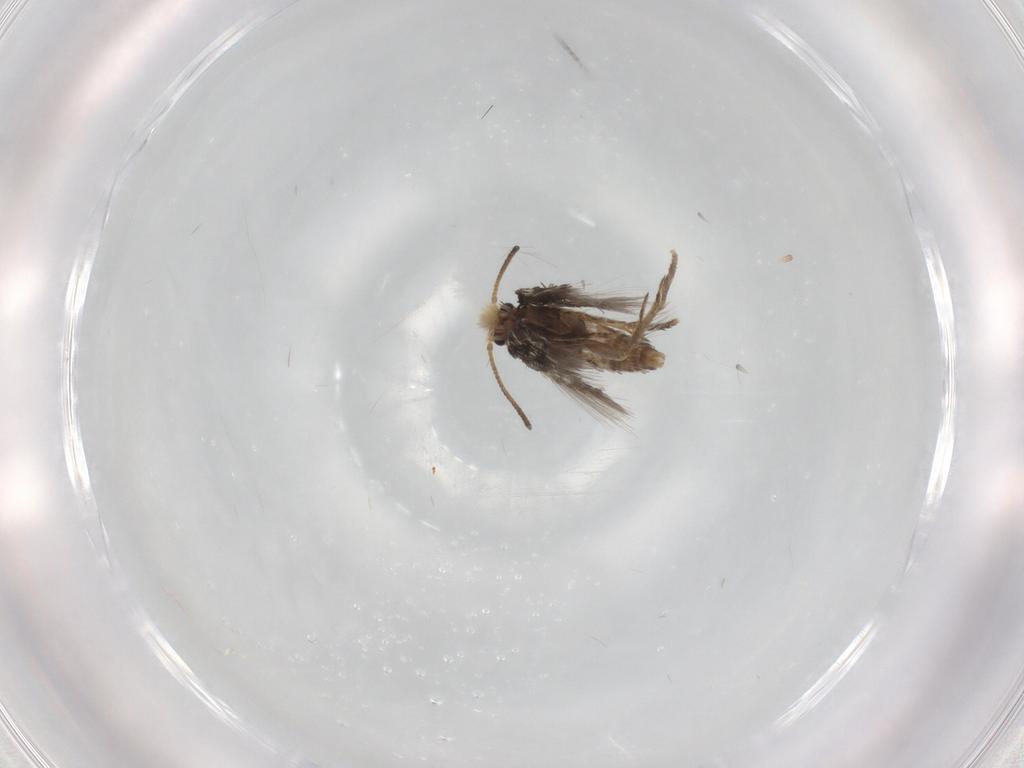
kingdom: Animalia
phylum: Arthropoda
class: Insecta
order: Lepidoptera
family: Nepticulidae
